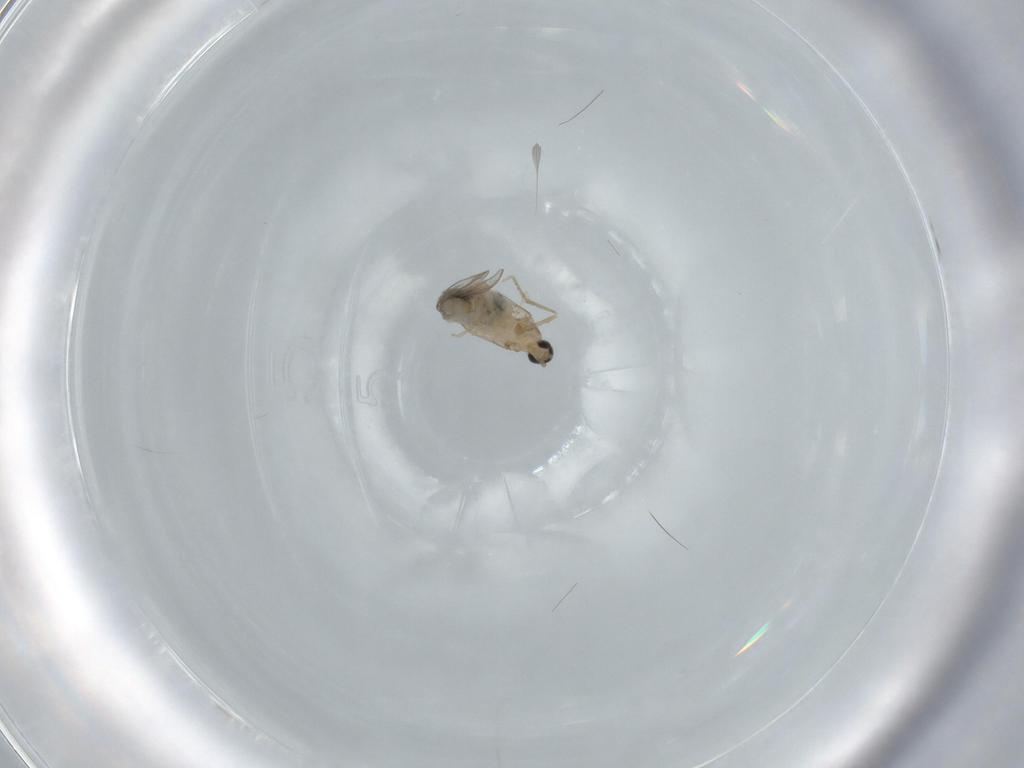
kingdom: Animalia
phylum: Arthropoda
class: Insecta
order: Diptera
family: Cecidomyiidae
